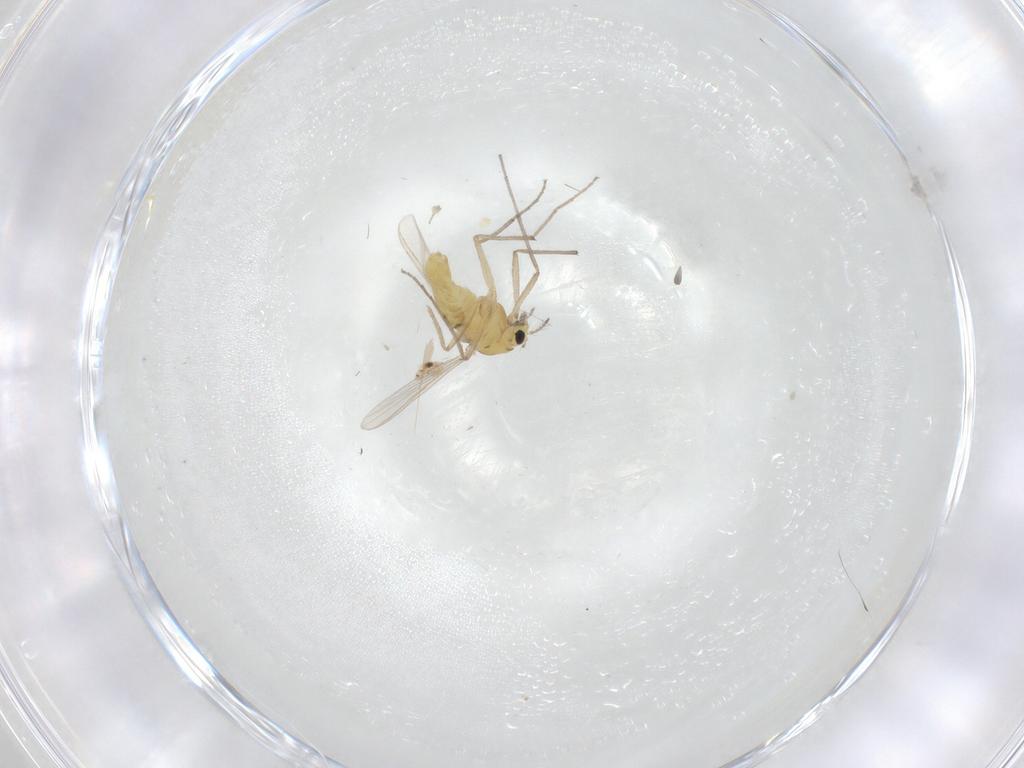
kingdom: Animalia
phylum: Arthropoda
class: Insecta
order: Diptera
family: Chironomidae
